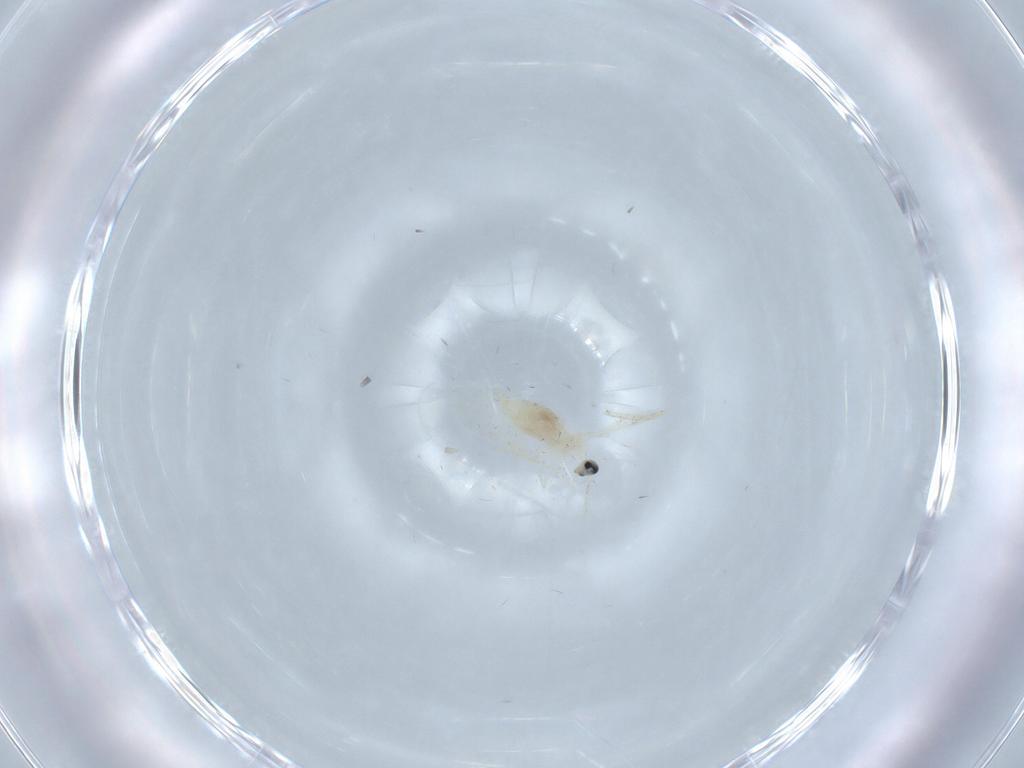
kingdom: Animalia
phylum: Arthropoda
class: Insecta
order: Diptera
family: Cecidomyiidae
